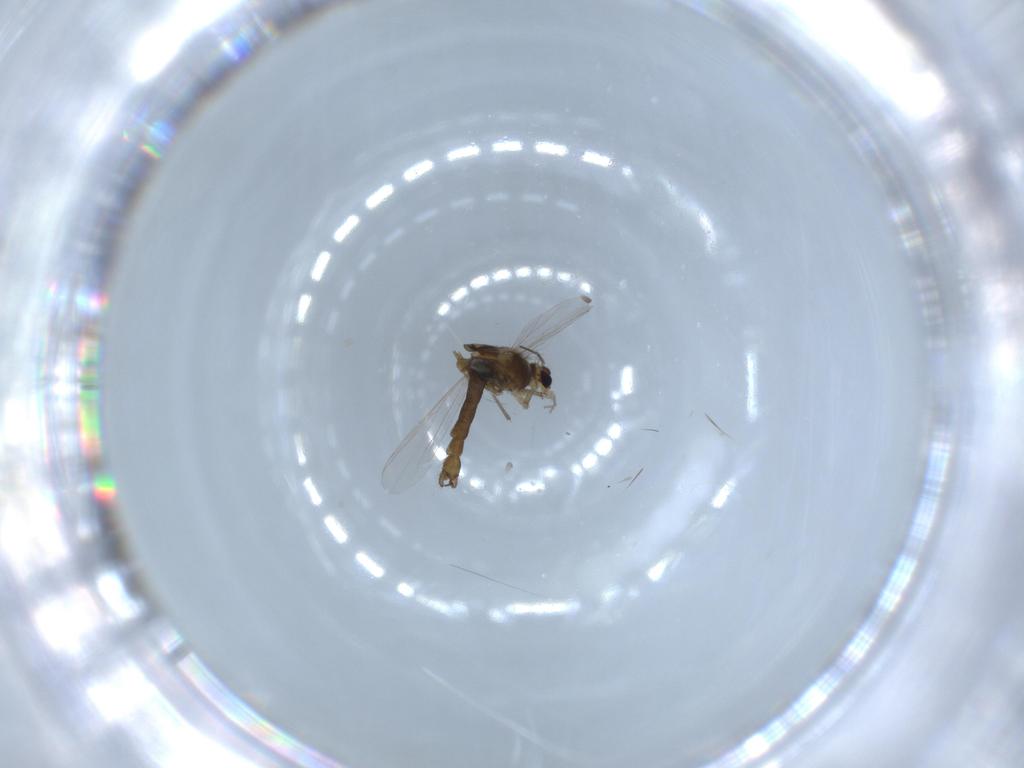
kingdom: Animalia
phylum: Arthropoda
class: Insecta
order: Diptera
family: Chironomidae
